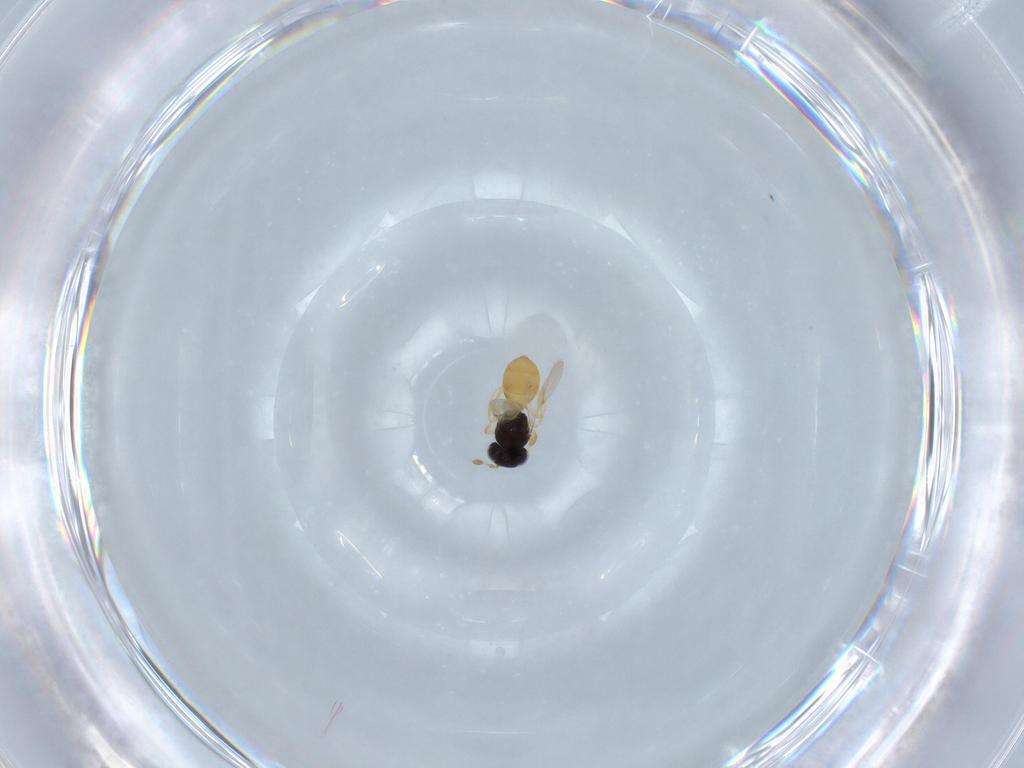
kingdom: Animalia
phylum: Arthropoda
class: Insecta
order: Hymenoptera
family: Scelionidae
